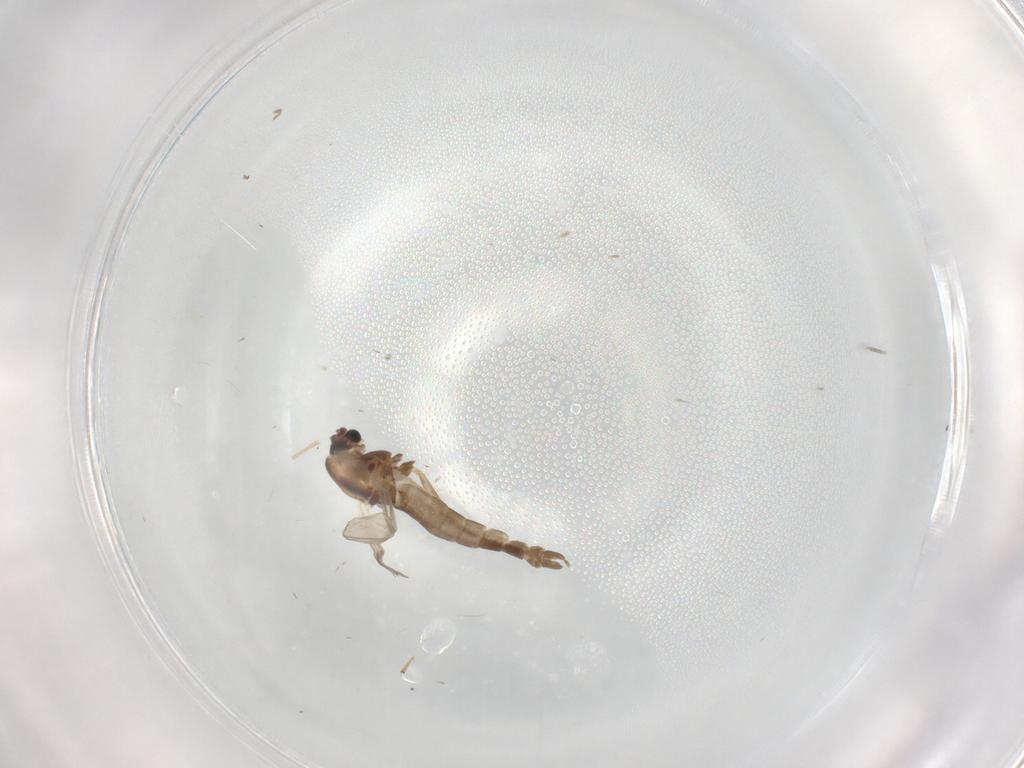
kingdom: Animalia
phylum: Arthropoda
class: Insecta
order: Diptera
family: Chironomidae
